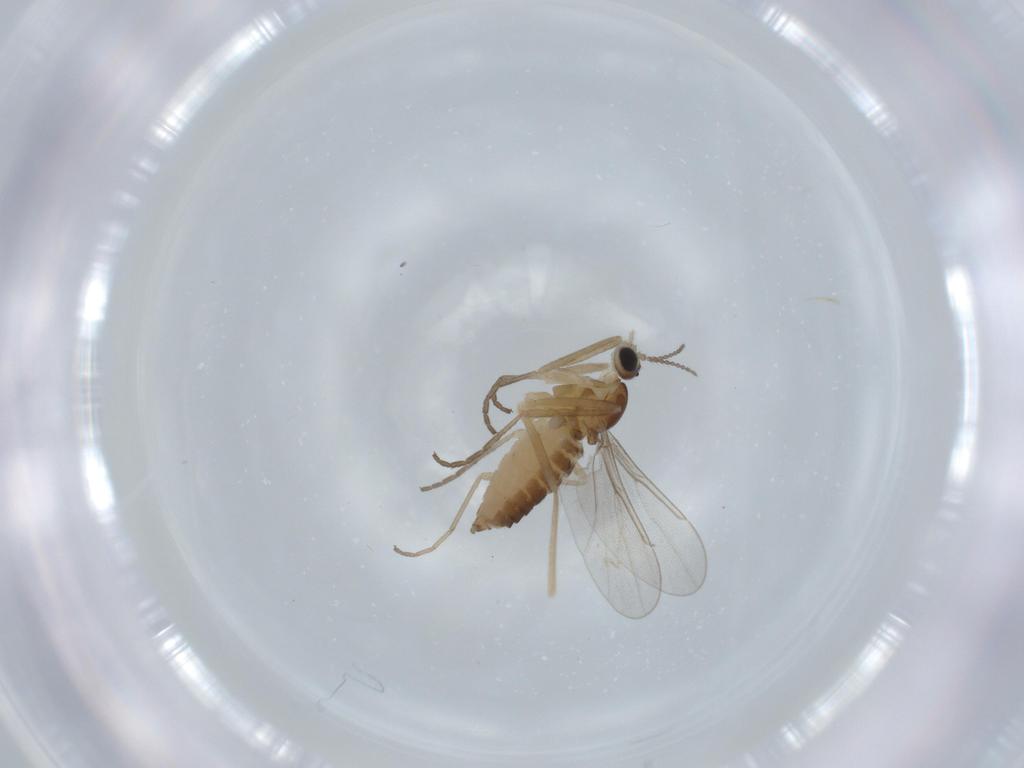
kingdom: Animalia
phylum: Arthropoda
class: Insecta
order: Diptera
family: Cecidomyiidae
